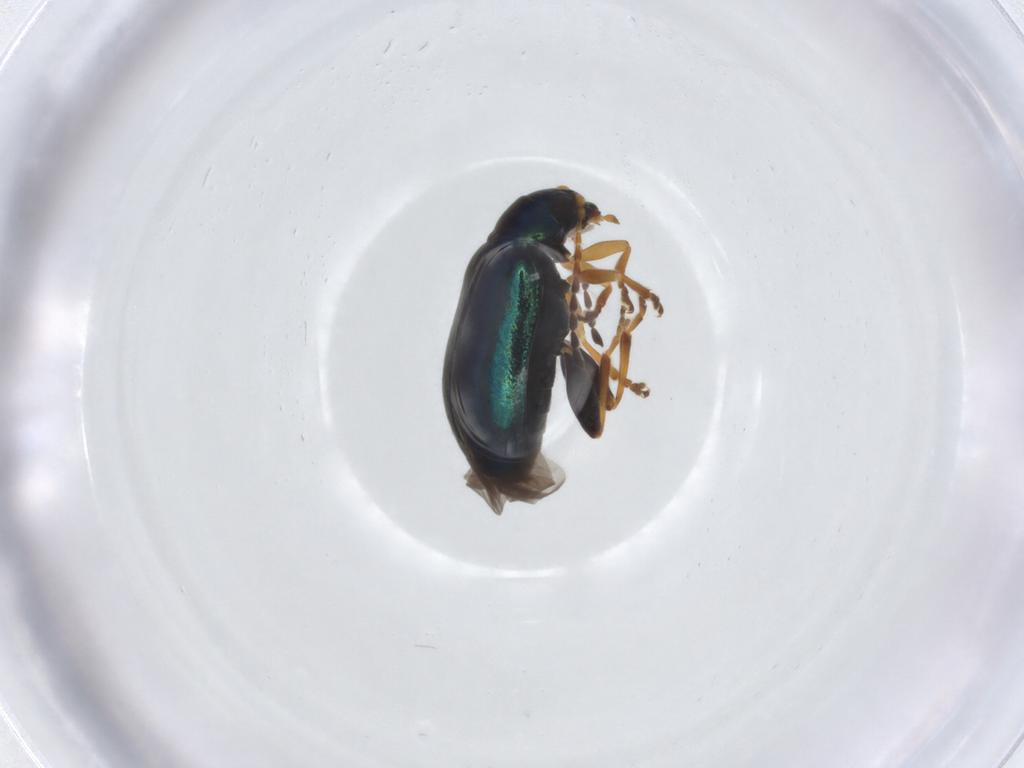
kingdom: Animalia
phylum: Arthropoda
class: Insecta
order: Coleoptera
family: Chrysomelidae
